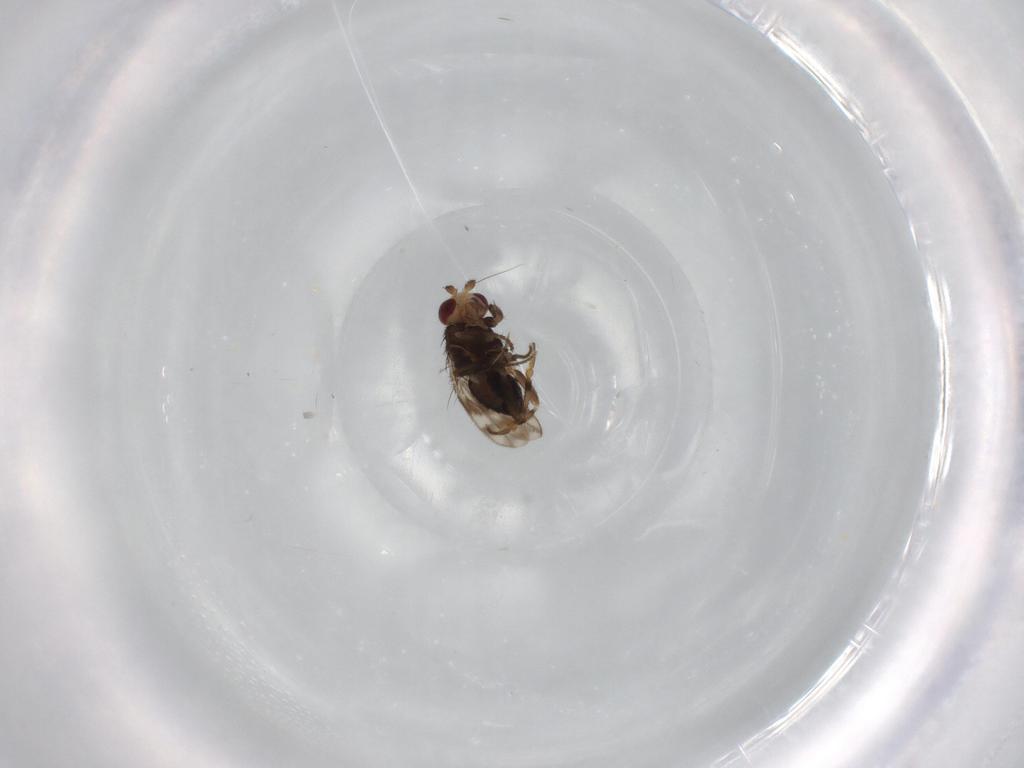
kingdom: Animalia
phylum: Arthropoda
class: Insecta
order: Diptera
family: Sphaeroceridae
